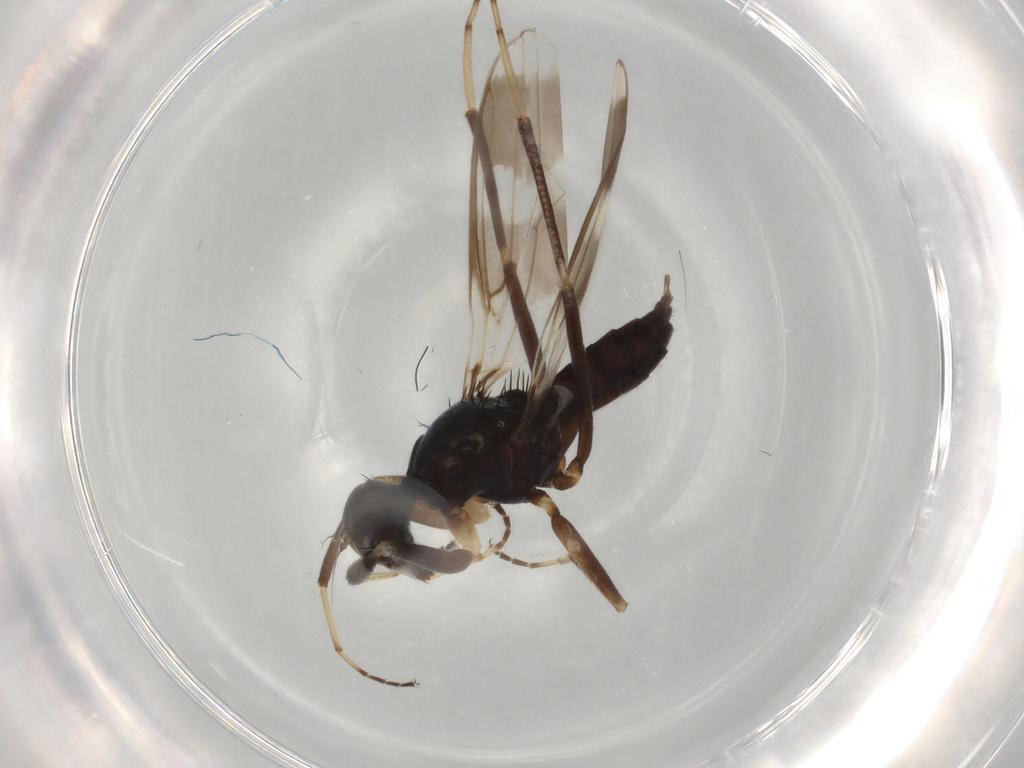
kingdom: Animalia
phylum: Arthropoda
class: Insecta
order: Diptera
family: Hybotidae
